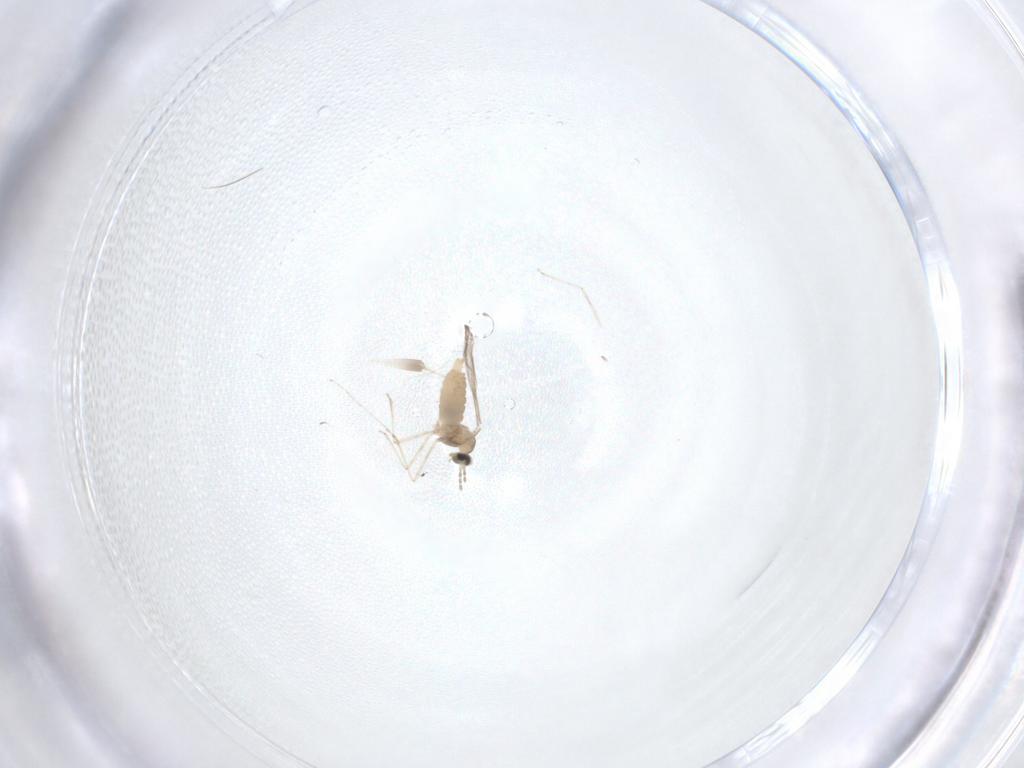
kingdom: Animalia
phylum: Arthropoda
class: Insecta
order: Diptera
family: Cecidomyiidae
